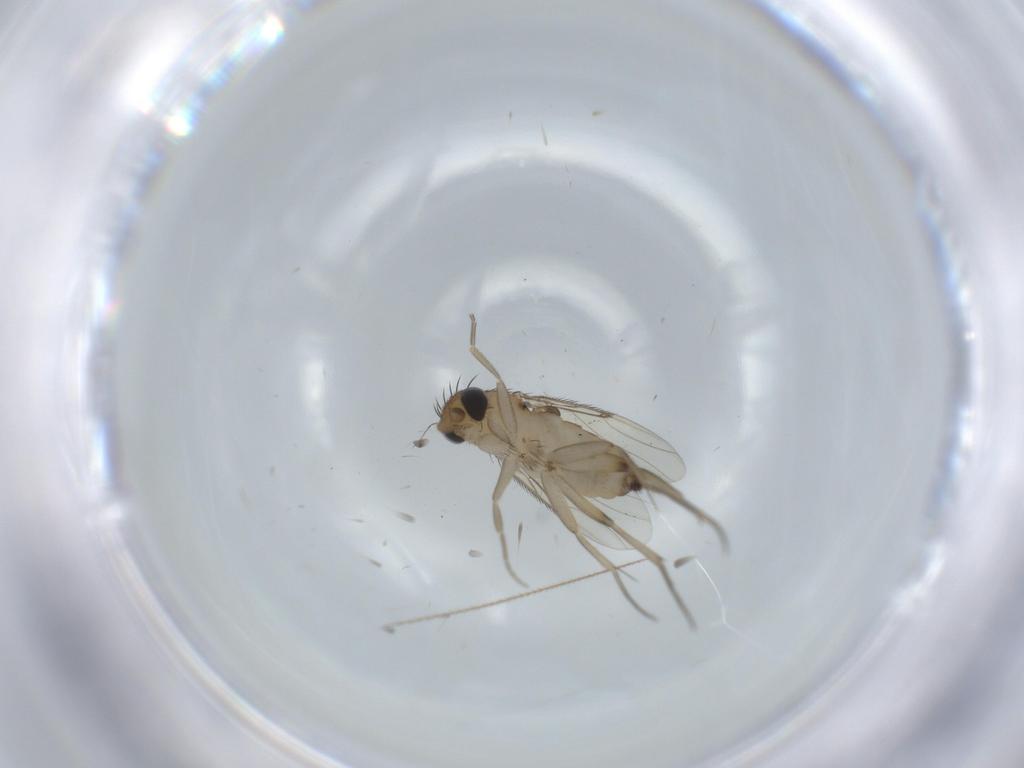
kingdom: Animalia
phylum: Arthropoda
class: Insecta
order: Diptera
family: Phoridae
